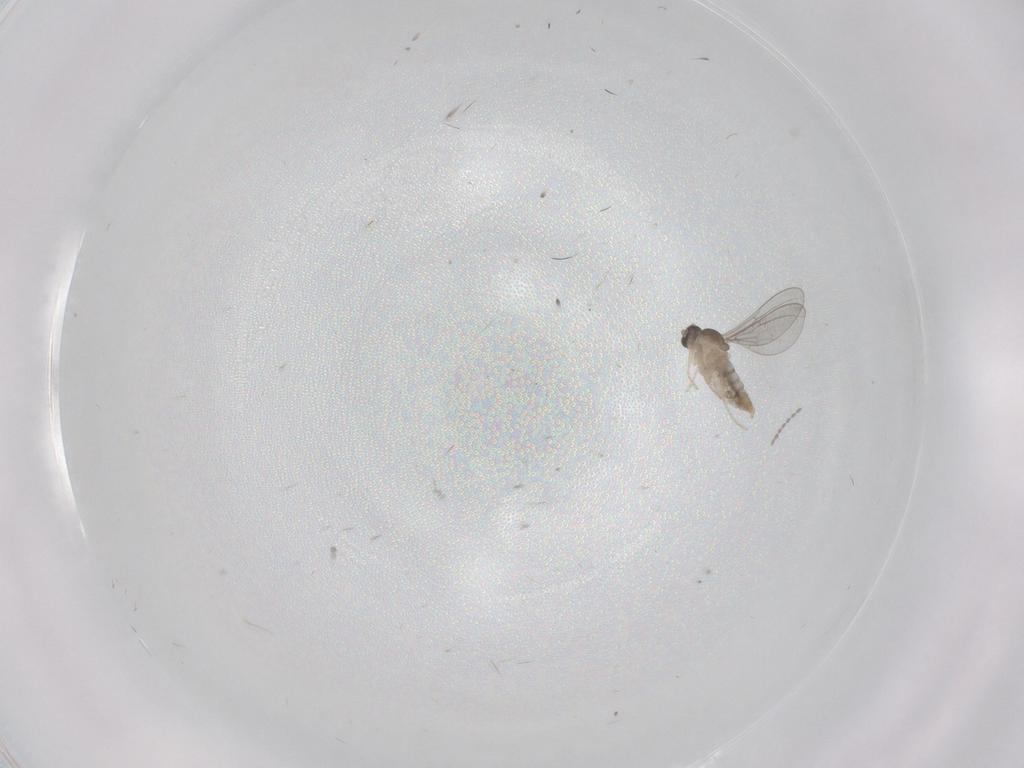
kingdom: Animalia
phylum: Arthropoda
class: Insecta
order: Diptera
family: Cecidomyiidae
